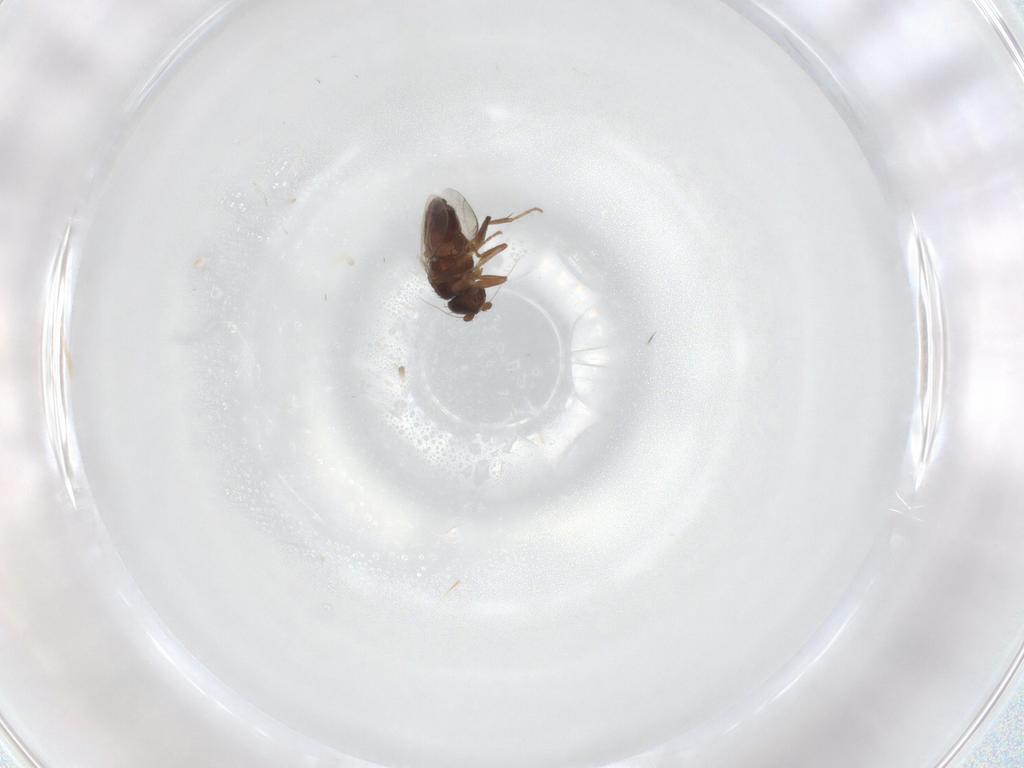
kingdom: Animalia
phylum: Arthropoda
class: Insecta
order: Diptera
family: Sphaeroceridae
